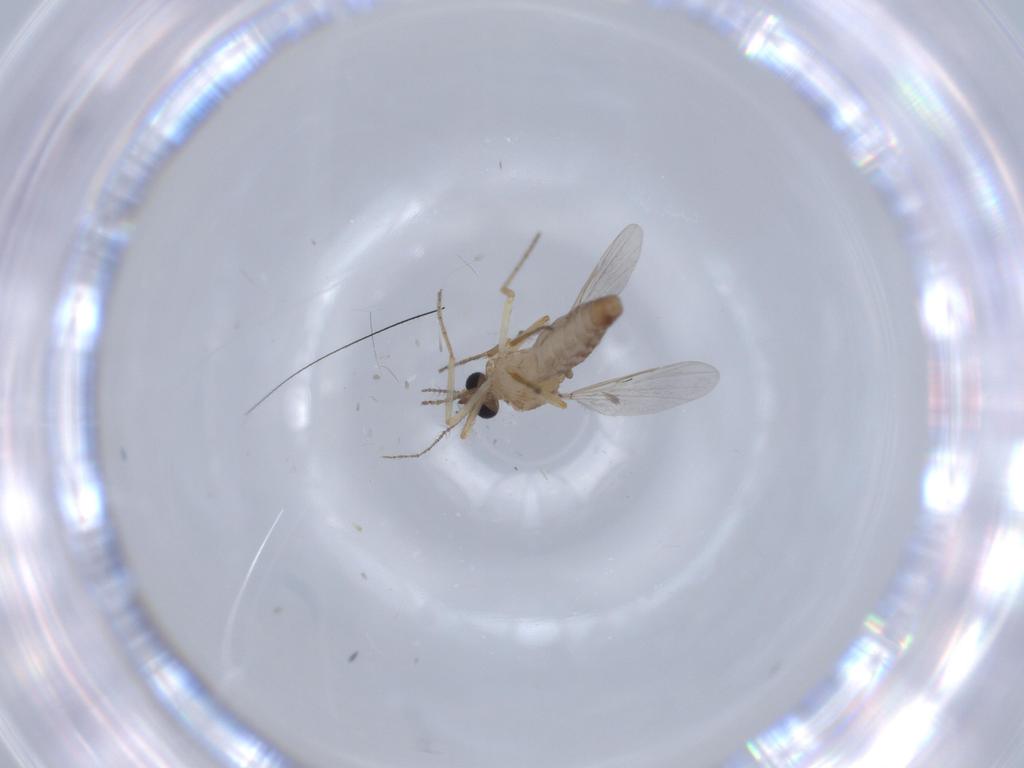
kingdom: Animalia
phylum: Arthropoda
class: Insecta
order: Diptera
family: Ceratopogonidae
